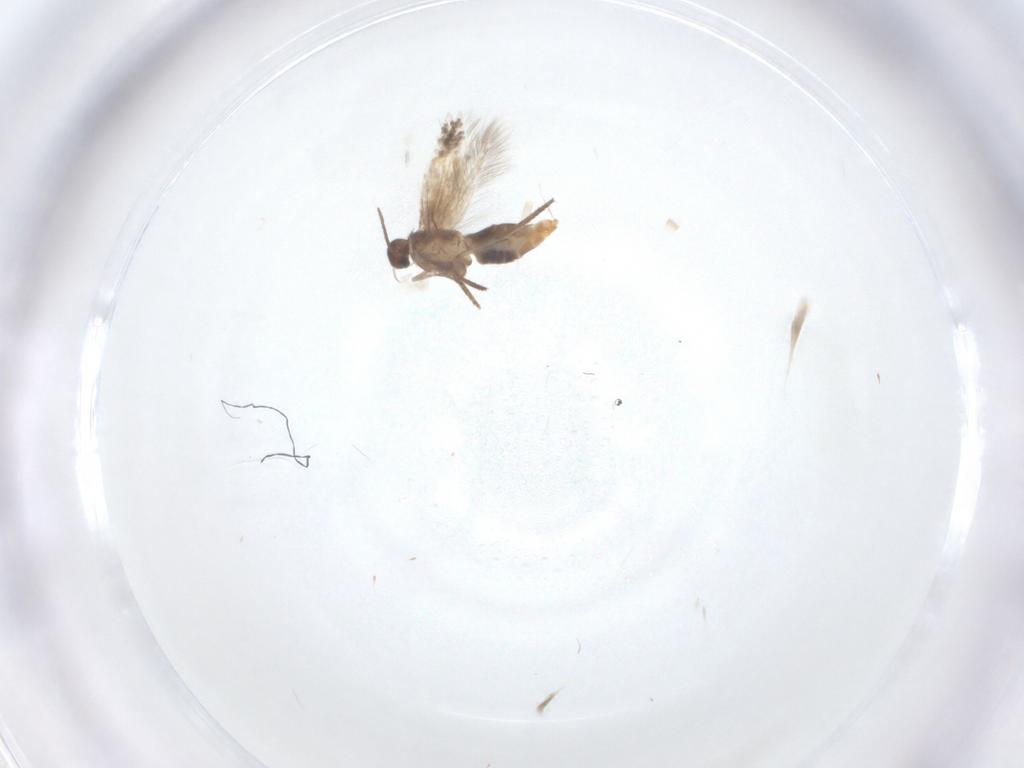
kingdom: Animalia
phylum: Arthropoda
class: Insecta
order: Lepidoptera
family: Heliozelidae
